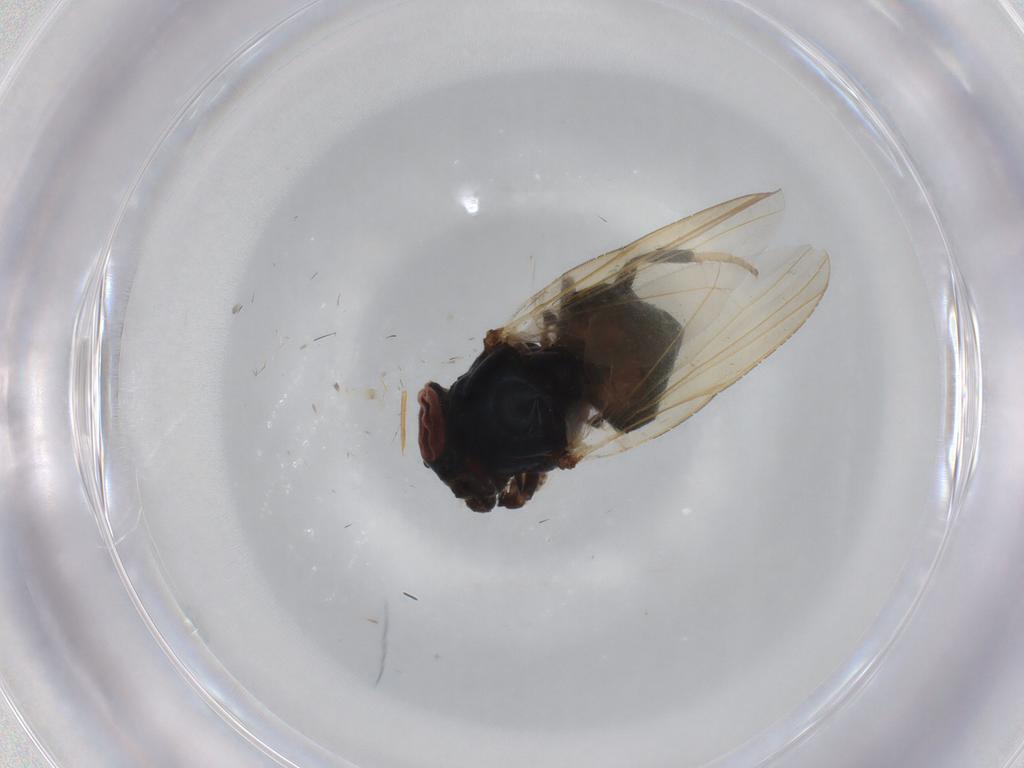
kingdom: Animalia
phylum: Arthropoda
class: Insecta
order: Diptera
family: Cecidomyiidae
